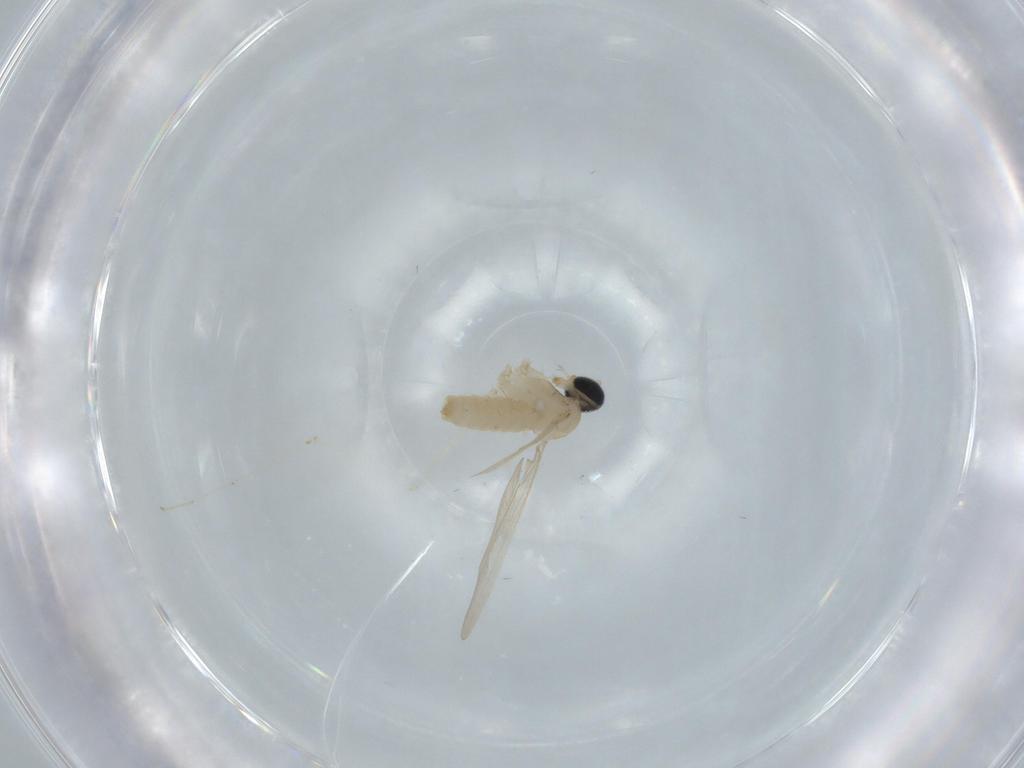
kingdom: Animalia
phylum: Arthropoda
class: Insecta
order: Diptera
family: Cecidomyiidae
